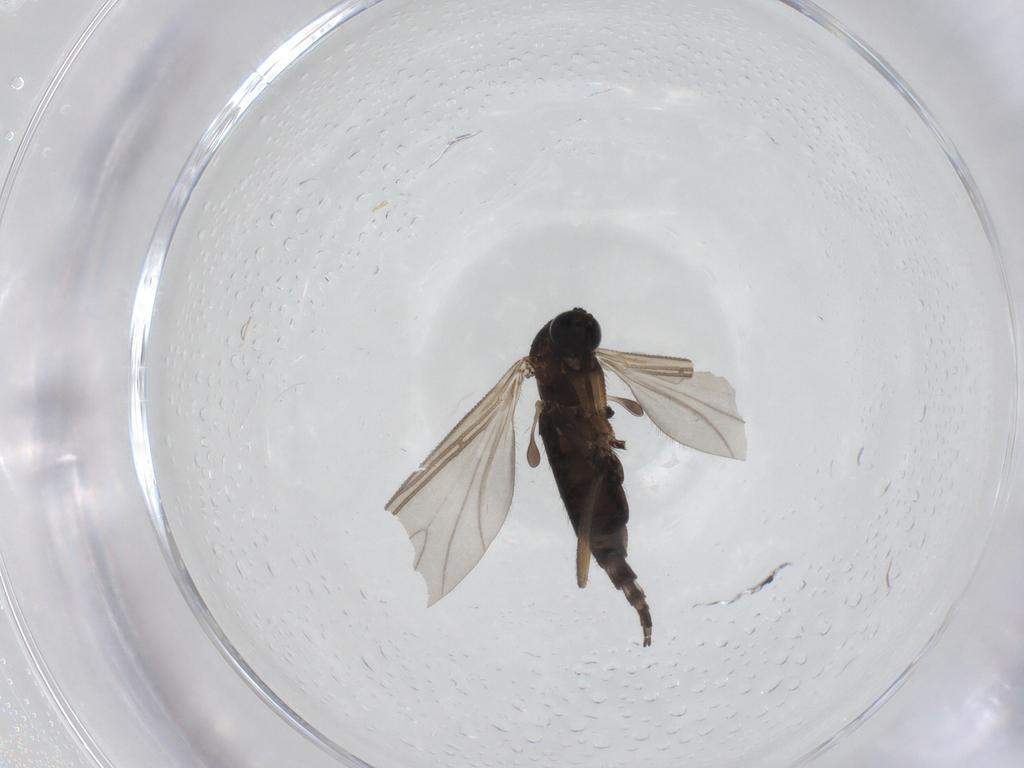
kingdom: Animalia
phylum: Arthropoda
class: Insecta
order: Diptera
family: Sciaridae
